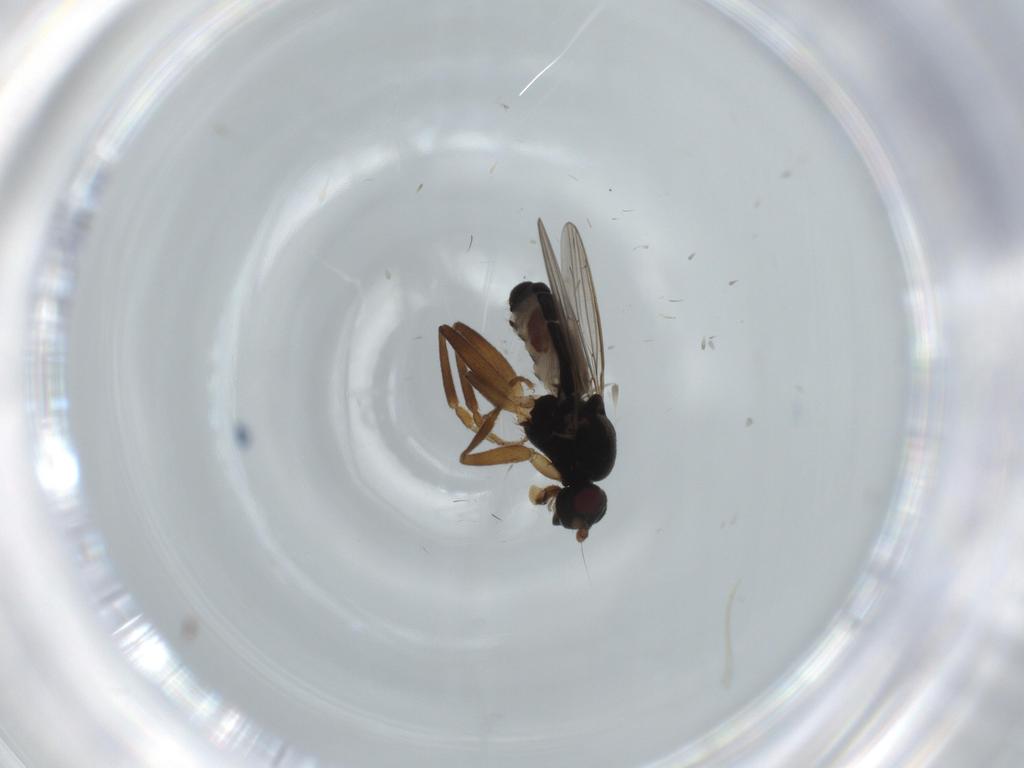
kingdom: Animalia
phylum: Arthropoda
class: Insecta
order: Diptera
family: Sphaeroceridae
